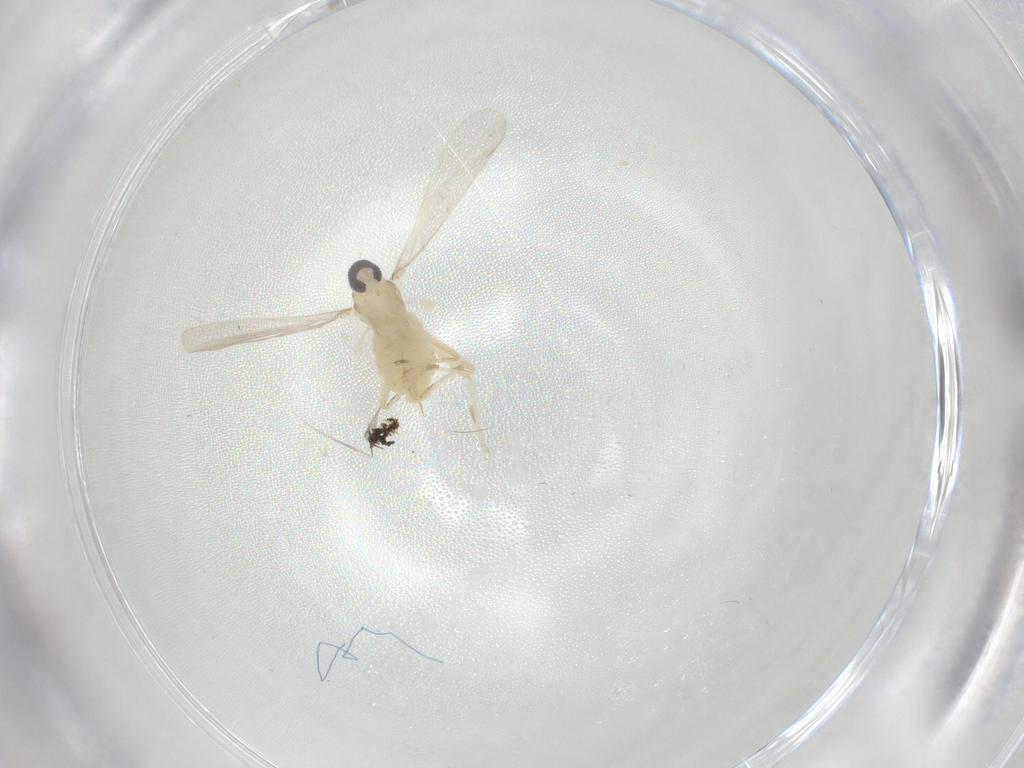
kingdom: Animalia
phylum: Arthropoda
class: Insecta
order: Diptera
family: Cecidomyiidae
